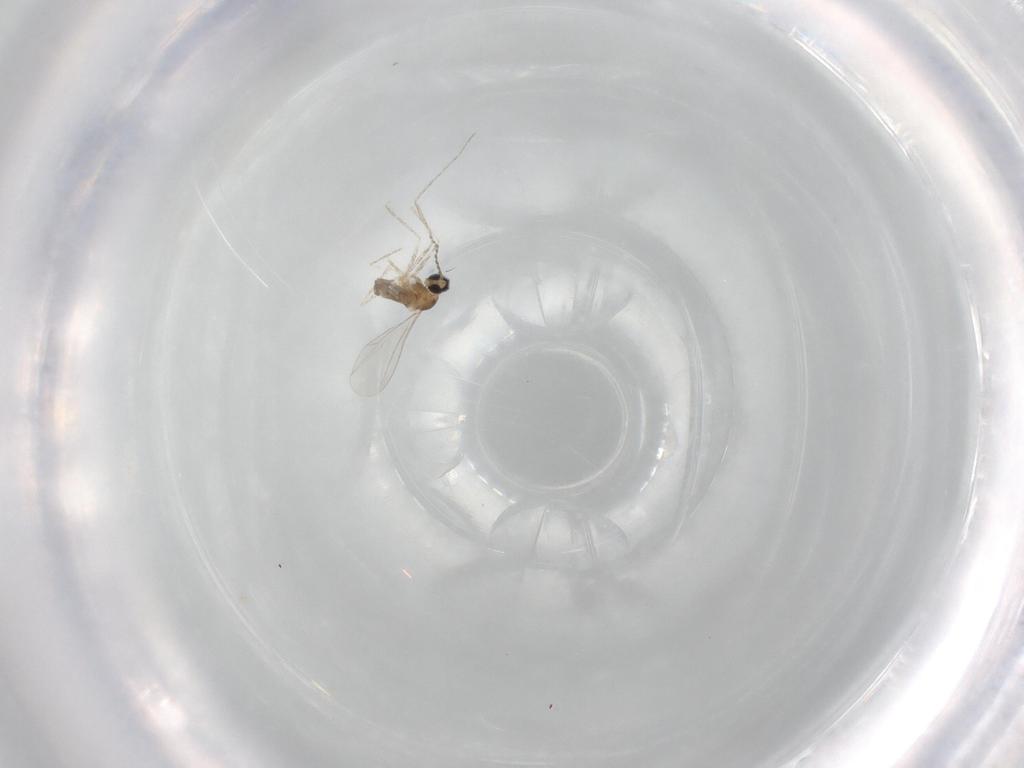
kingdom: Animalia
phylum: Arthropoda
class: Insecta
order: Diptera
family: Cecidomyiidae
